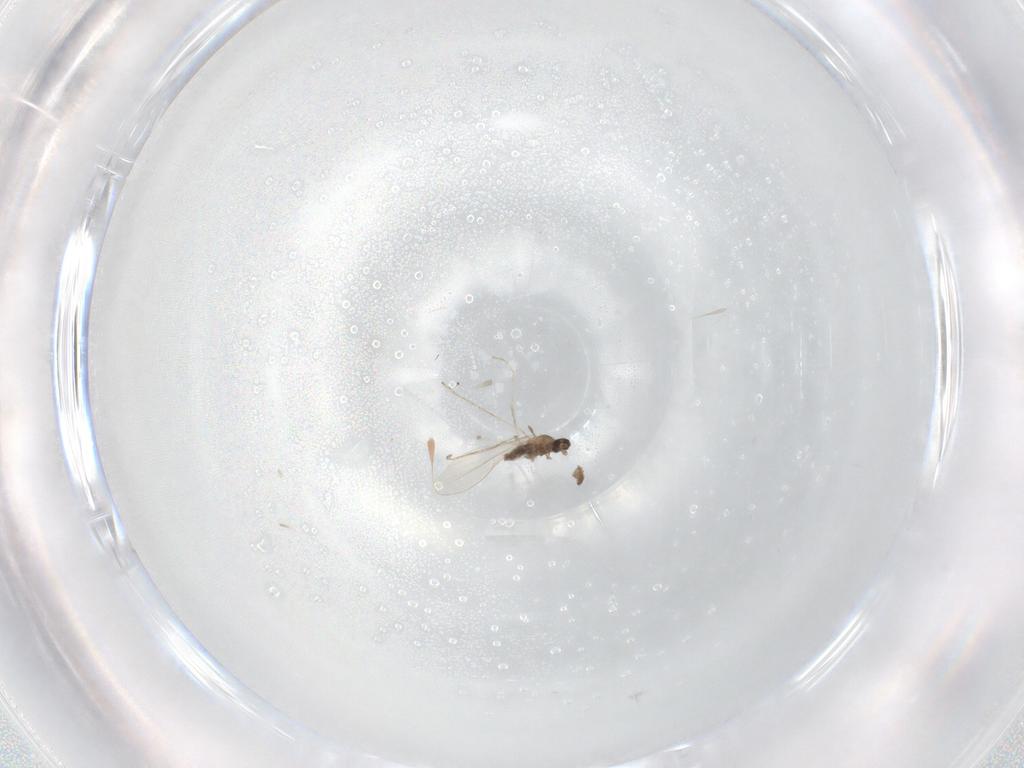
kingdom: Animalia
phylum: Arthropoda
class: Insecta
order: Diptera
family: Cecidomyiidae
